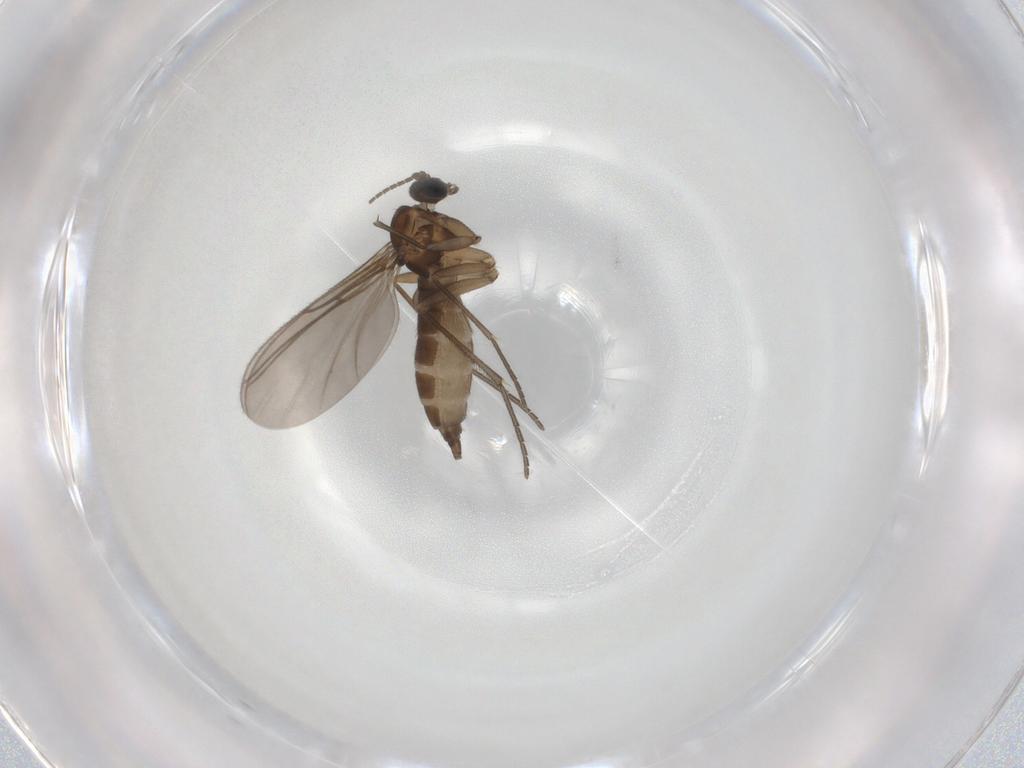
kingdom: Animalia
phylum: Arthropoda
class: Insecta
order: Diptera
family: Sciaridae
